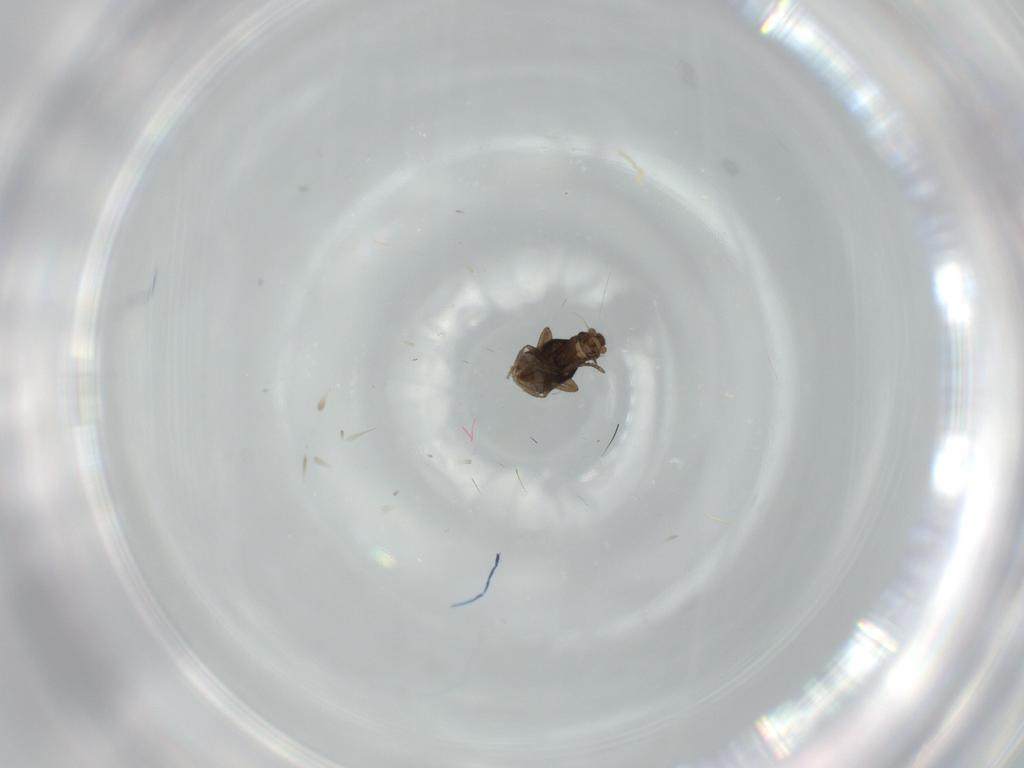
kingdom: Animalia
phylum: Arthropoda
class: Insecta
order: Diptera
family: Phoridae
